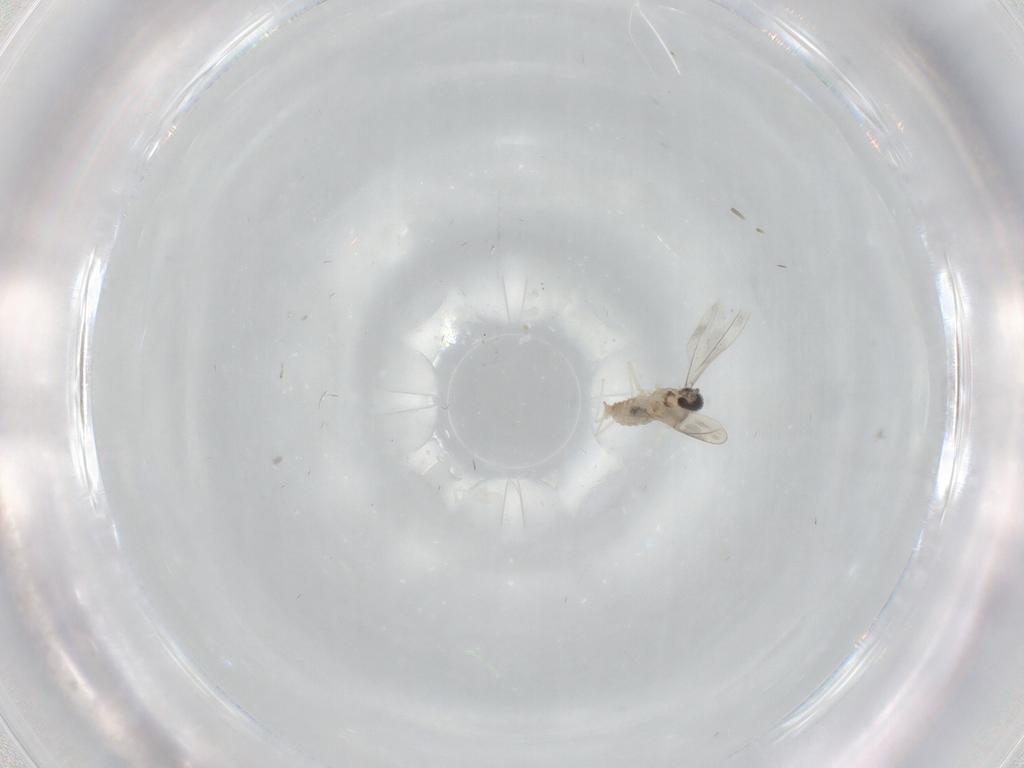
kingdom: Animalia
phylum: Arthropoda
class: Insecta
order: Diptera
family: Cecidomyiidae
